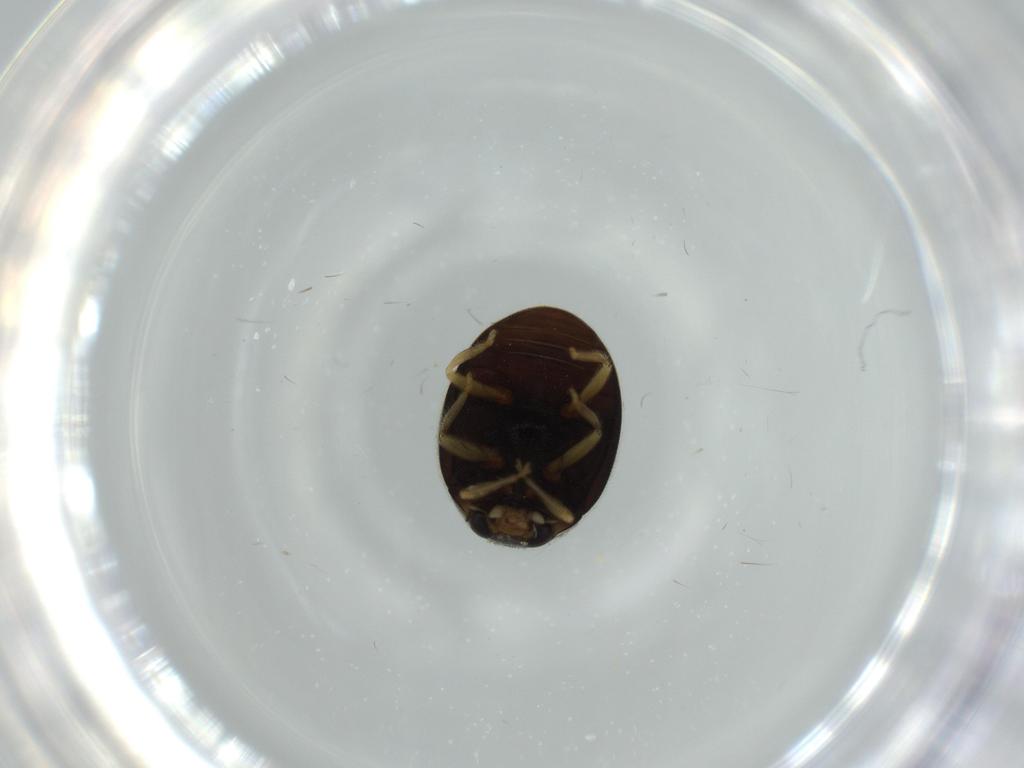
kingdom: Animalia
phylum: Arthropoda
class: Insecta
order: Coleoptera
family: Coccinellidae
